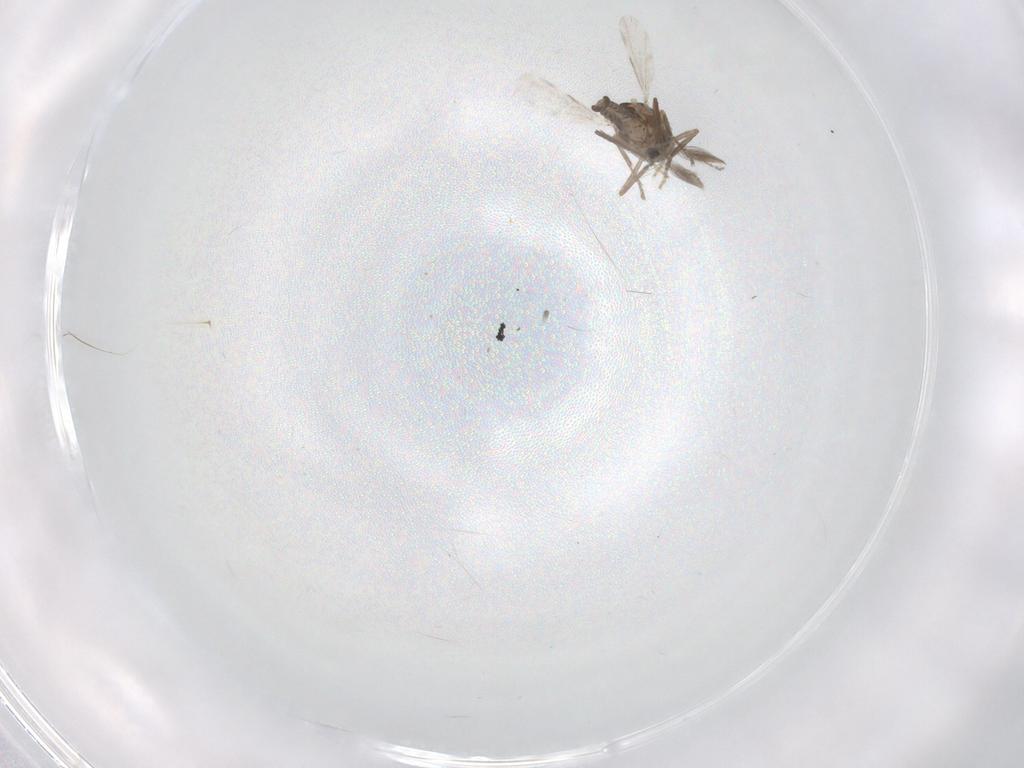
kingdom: Animalia
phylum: Arthropoda
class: Insecta
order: Diptera
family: Ceratopogonidae
